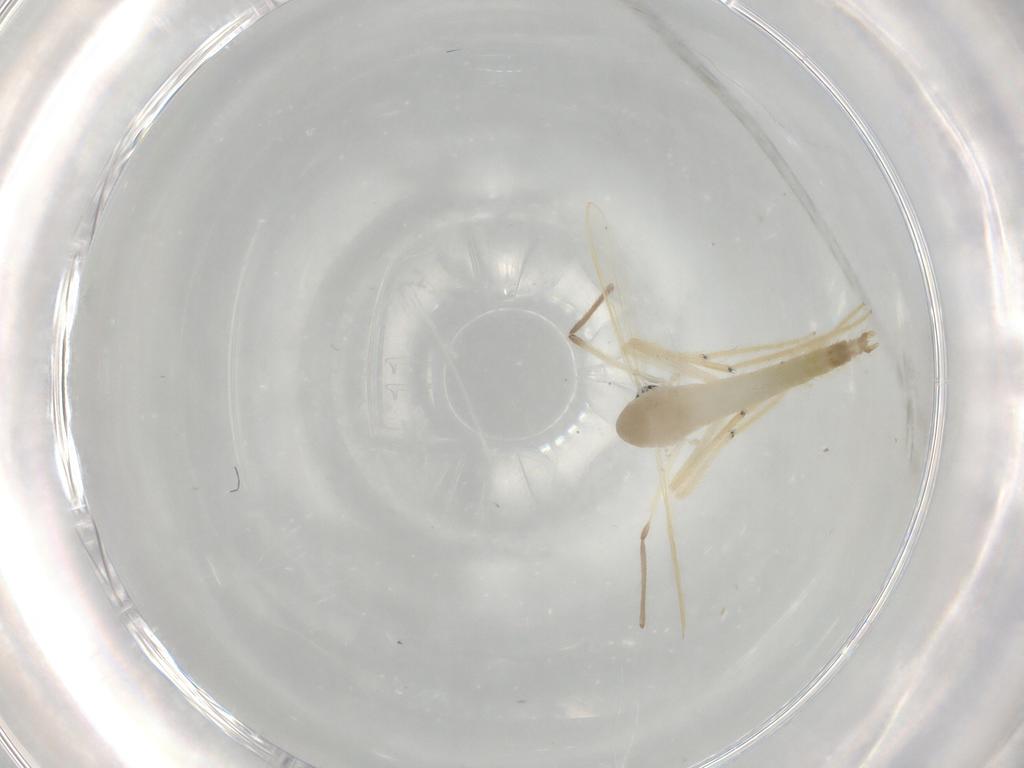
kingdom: Animalia
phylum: Arthropoda
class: Insecta
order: Diptera
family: Chironomidae
